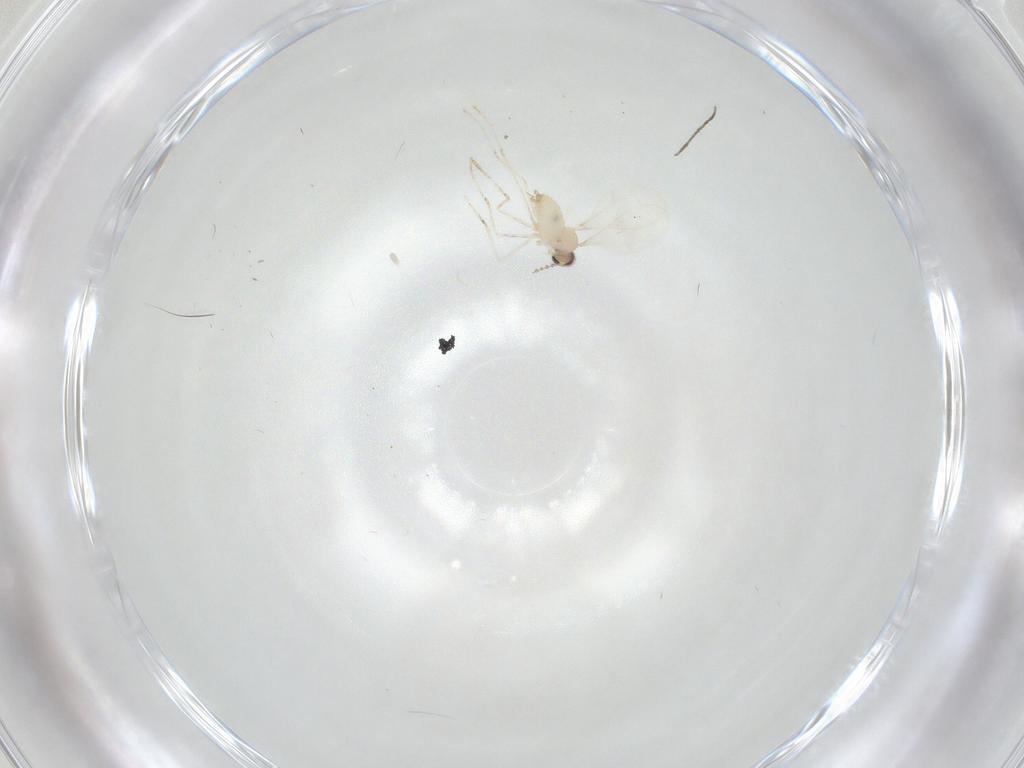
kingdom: Animalia
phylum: Arthropoda
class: Insecta
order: Diptera
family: Cecidomyiidae
